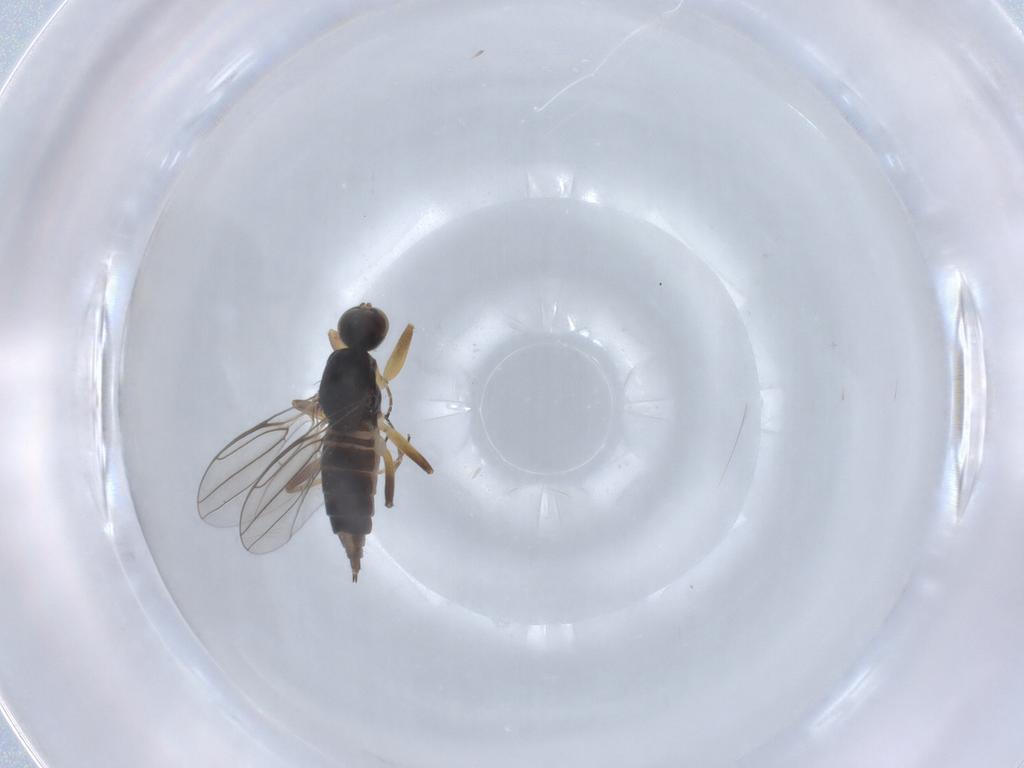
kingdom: Animalia
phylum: Arthropoda
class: Insecta
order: Diptera
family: Hybotidae
